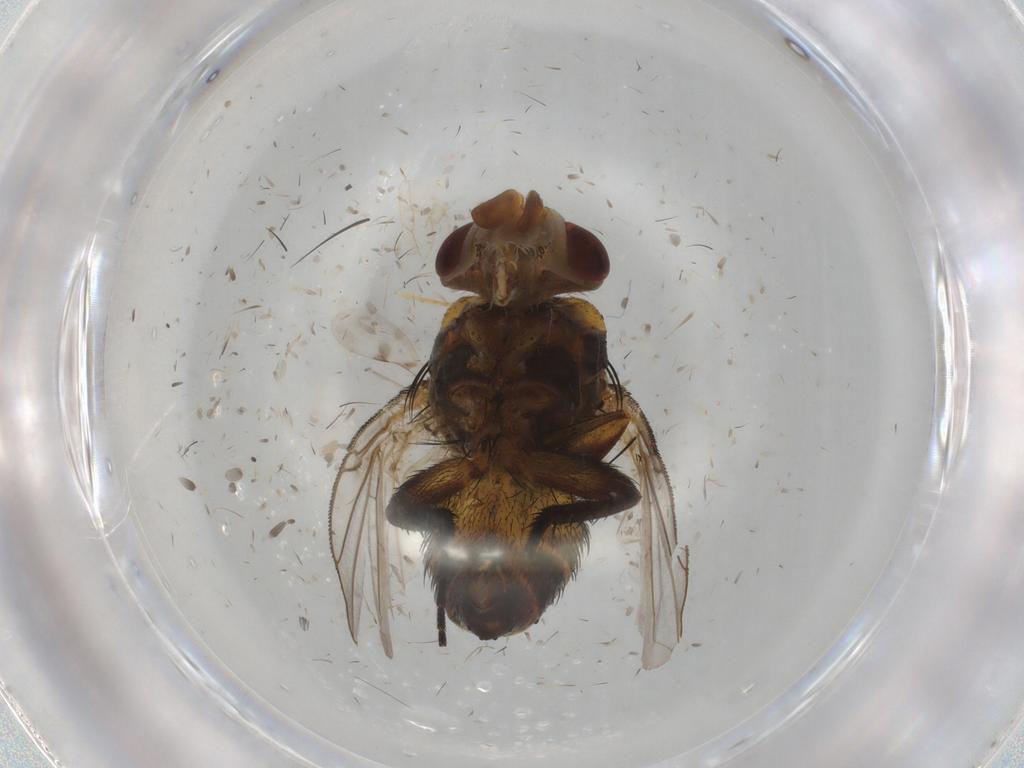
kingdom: Animalia
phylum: Arthropoda
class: Insecta
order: Diptera
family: Glossinidae
